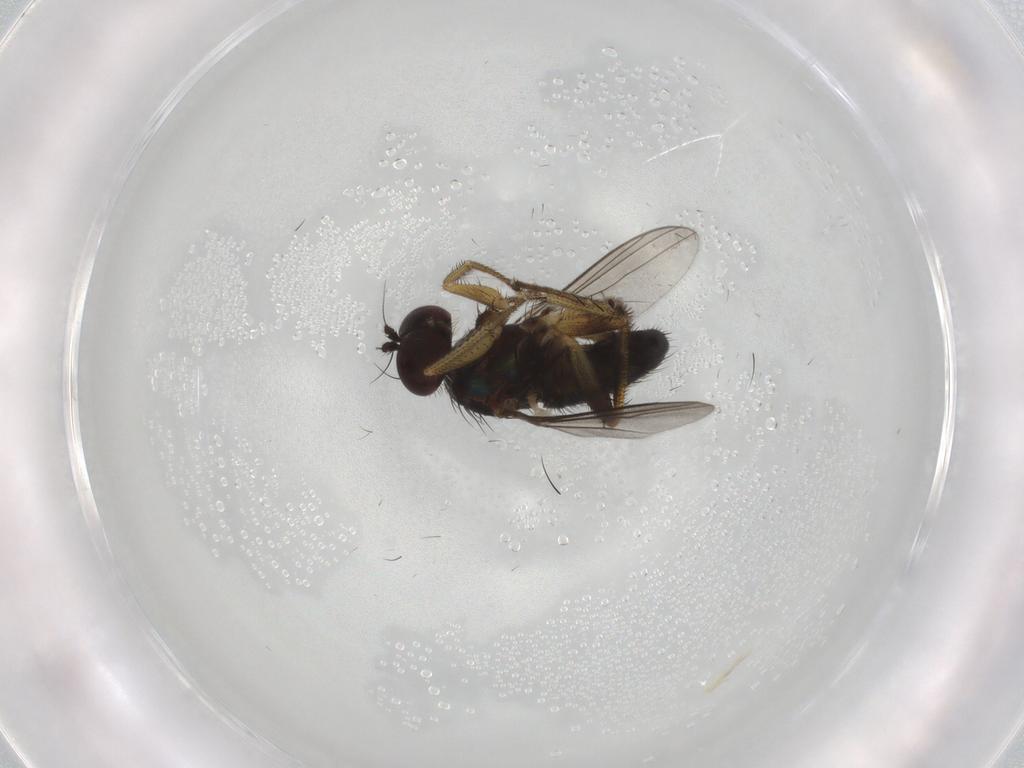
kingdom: Animalia
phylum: Arthropoda
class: Insecta
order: Diptera
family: Dolichopodidae
